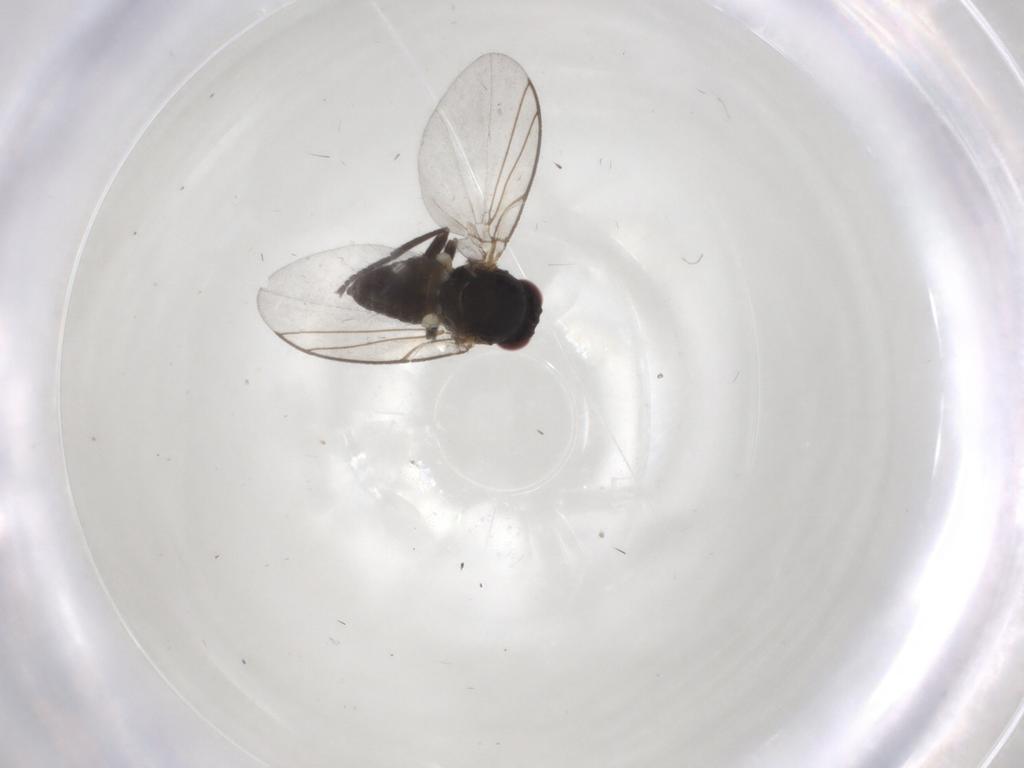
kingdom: Animalia
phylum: Arthropoda
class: Insecta
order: Diptera
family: Agromyzidae
